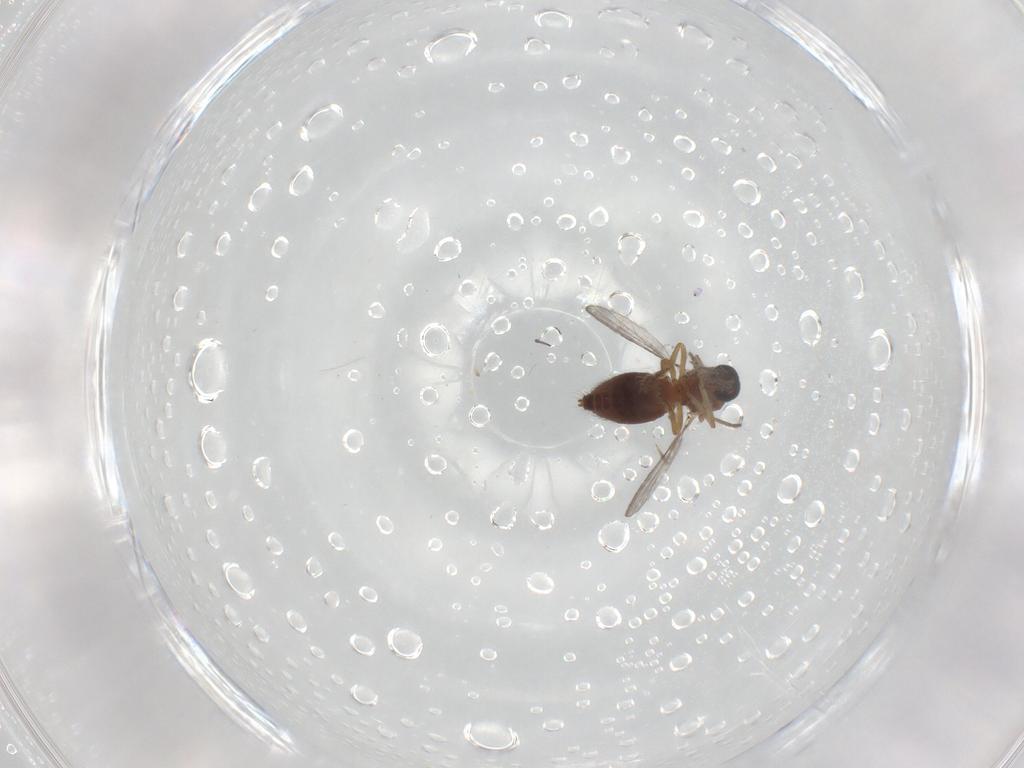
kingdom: Animalia
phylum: Arthropoda
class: Insecta
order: Diptera
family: Ceratopogonidae
